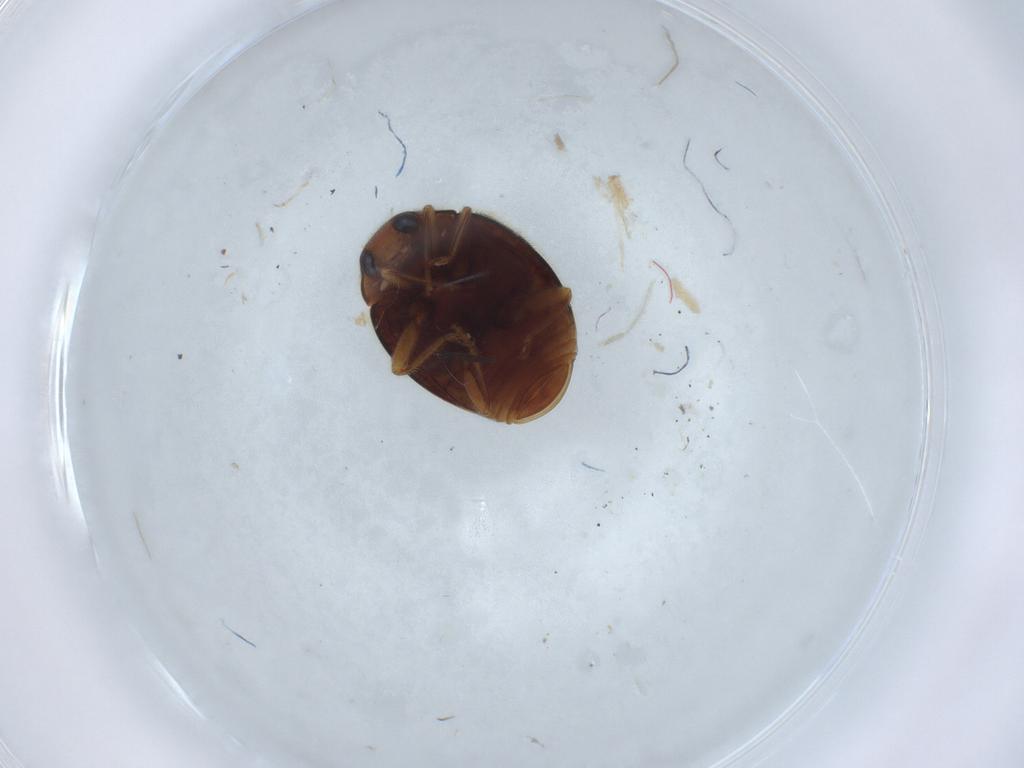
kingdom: Animalia
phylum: Arthropoda
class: Insecta
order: Coleoptera
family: Coccinellidae
